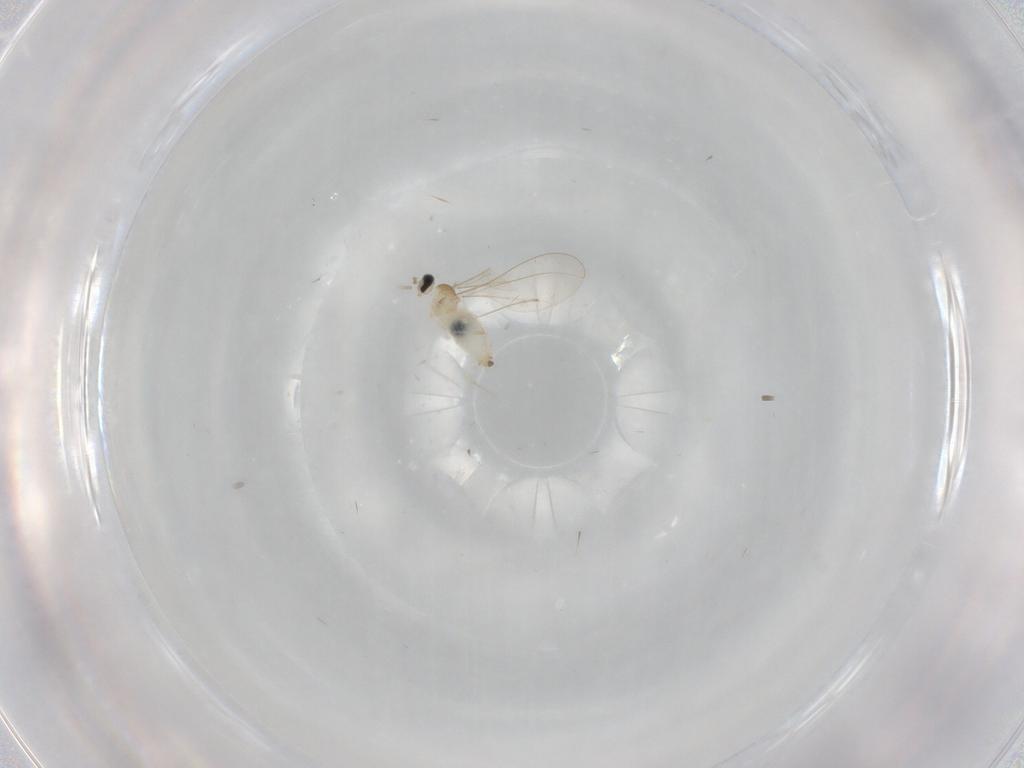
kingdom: Animalia
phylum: Arthropoda
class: Insecta
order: Diptera
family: Cecidomyiidae
